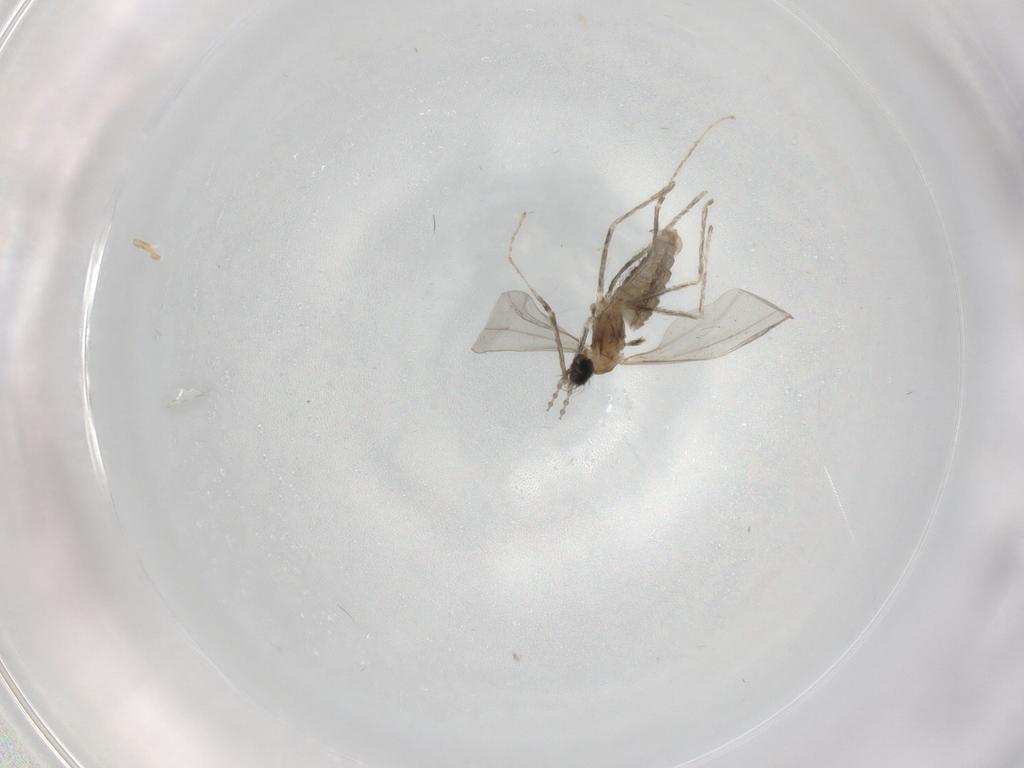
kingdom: Animalia
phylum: Arthropoda
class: Insecta
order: Diptera
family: Cecidomyiidae
